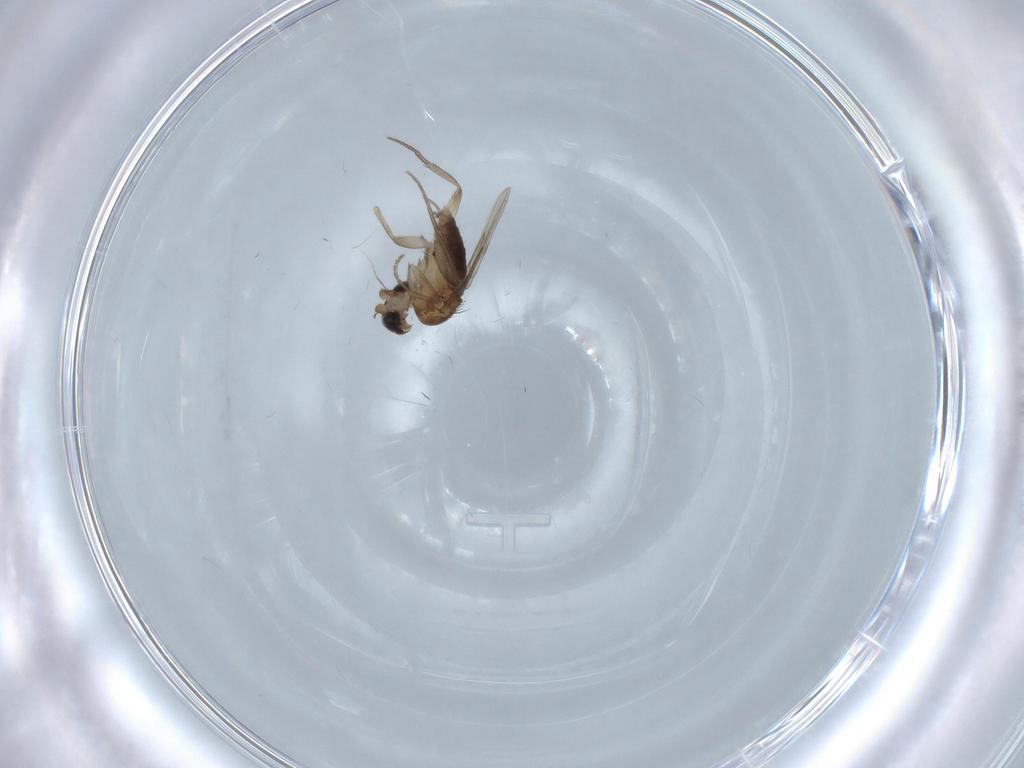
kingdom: Animalia
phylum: Arthropoda
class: Insecta
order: Diptera
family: Phoridae
